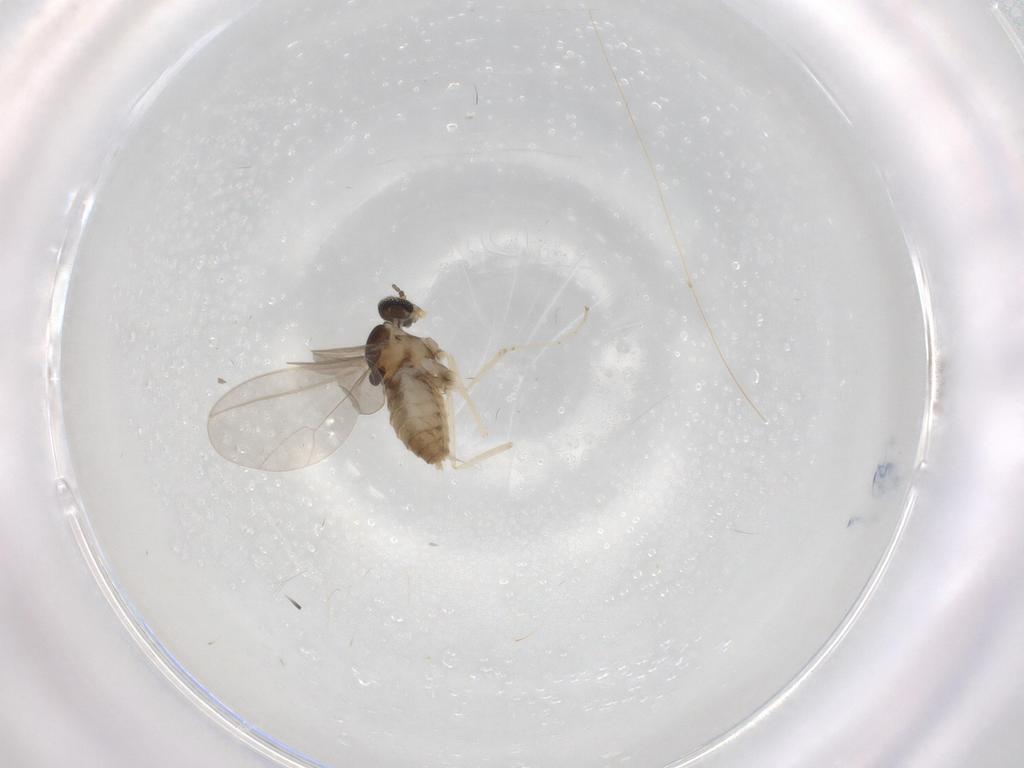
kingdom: Animalia
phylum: Arthropoda
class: Insecta
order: Diptera
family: Cecidomyiidae
